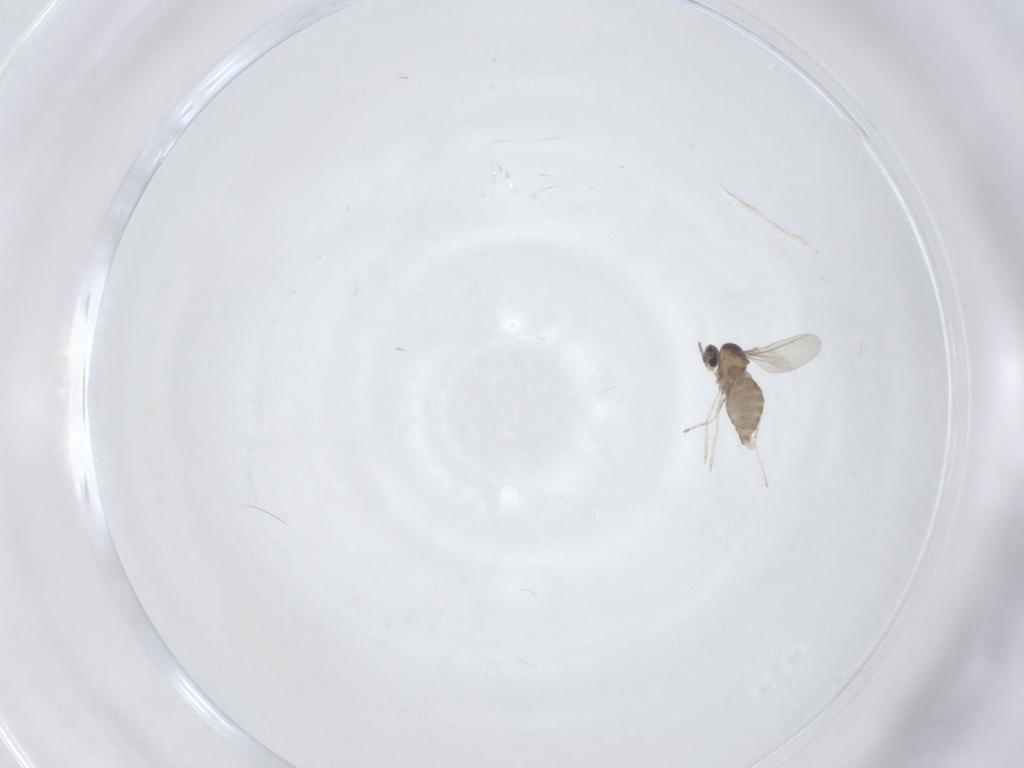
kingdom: Animalia
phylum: Arthropoda
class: Insecta
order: Diptera
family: Cecidomyiidae
